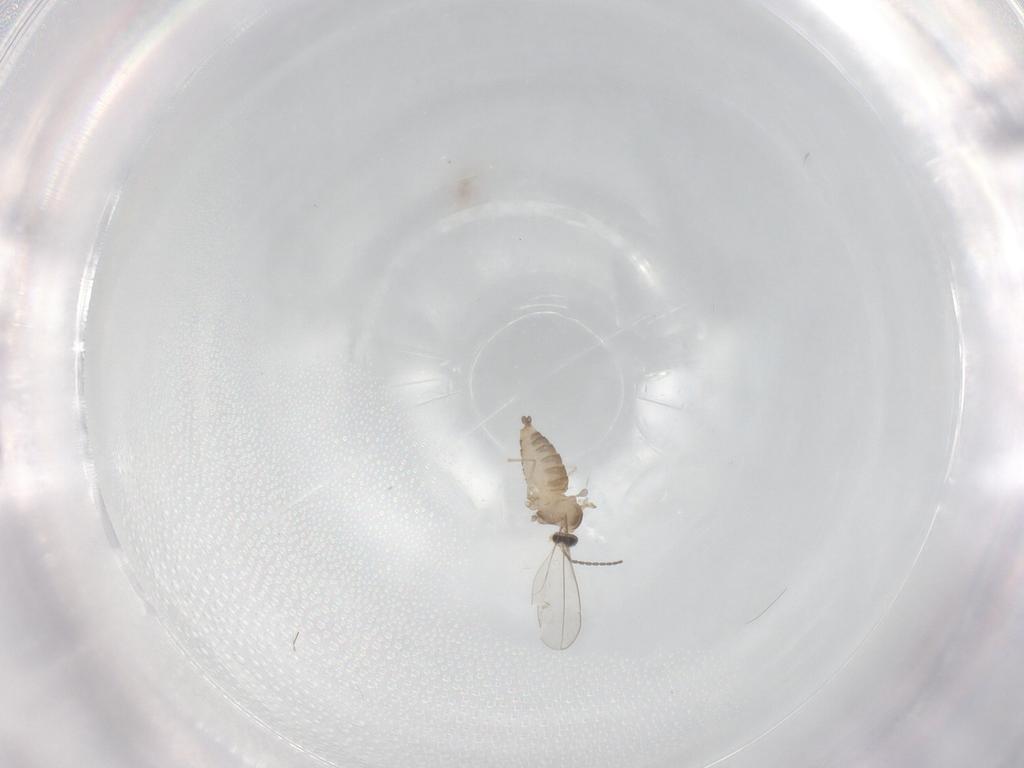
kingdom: Animalia
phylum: Arthropoda
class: Insecta
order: Diptera
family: Cecidomyiidae
